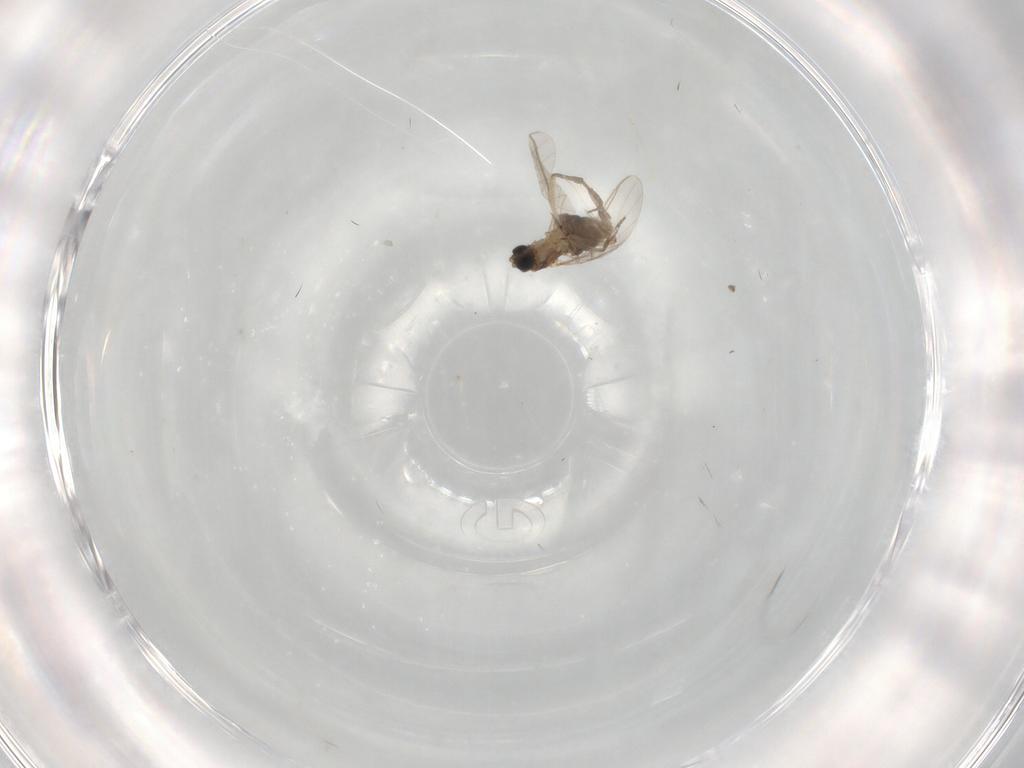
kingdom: Animalia
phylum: Arthropoda
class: Insecta
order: Diptera
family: Sciaridae
